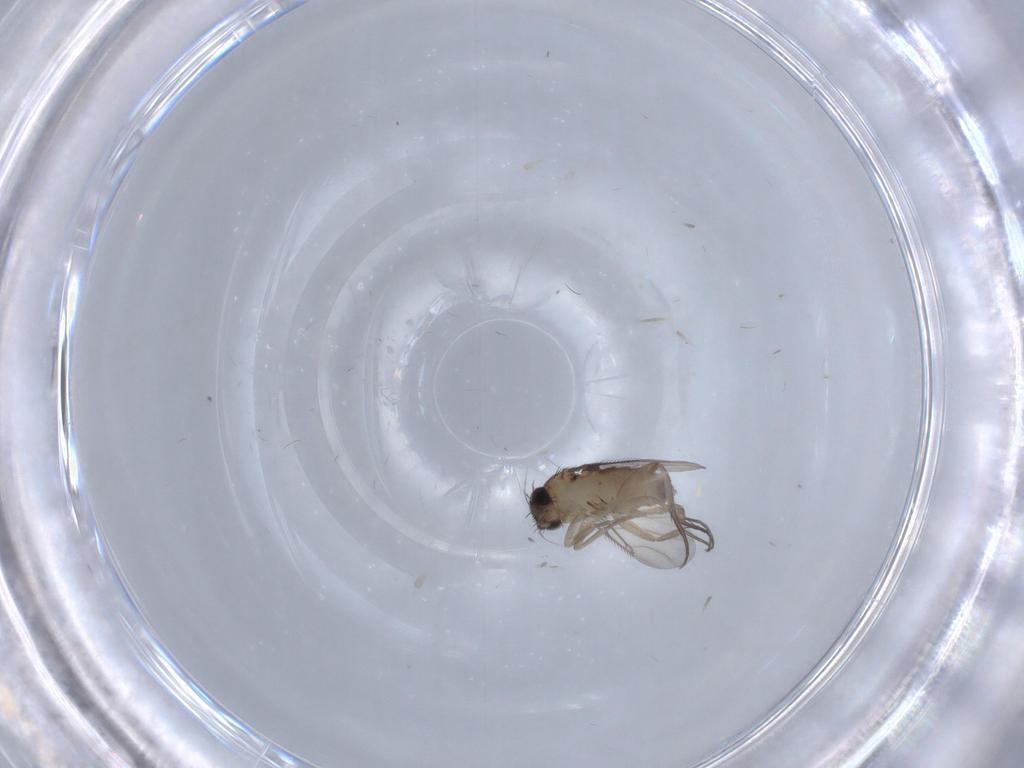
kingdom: Animalia
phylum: Arthropoda
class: Insecta
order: Diptera
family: Phoridae
